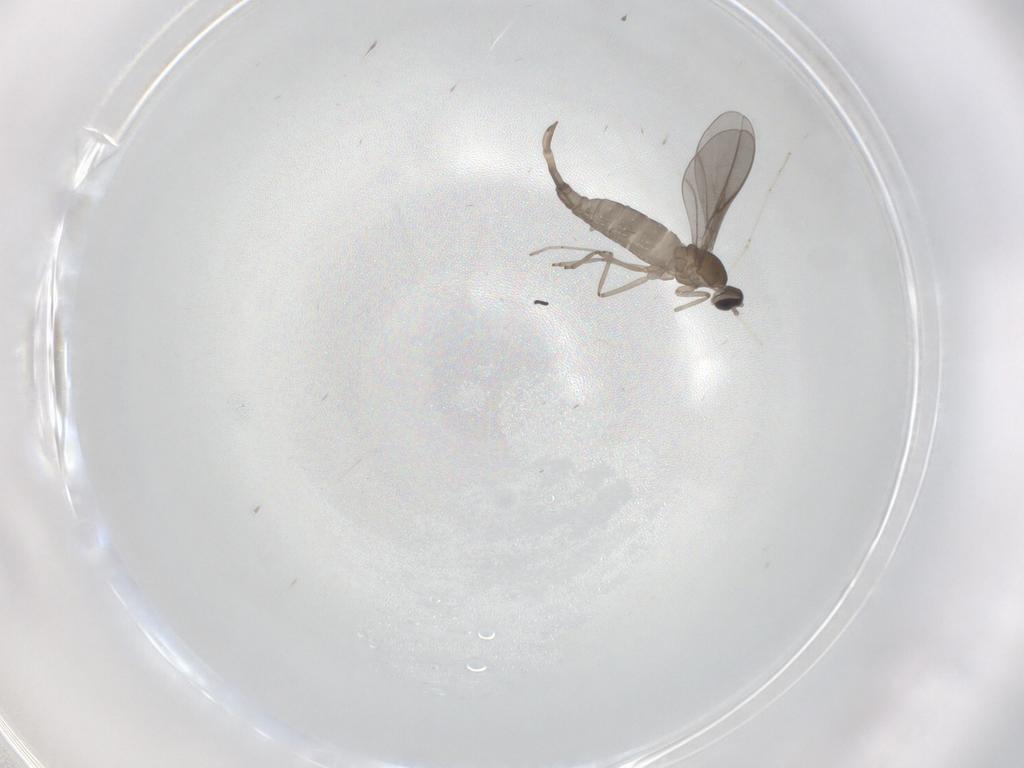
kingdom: Animalia
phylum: Arthropoda
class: Insecta
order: Diptera
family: Cecidomyiidae
